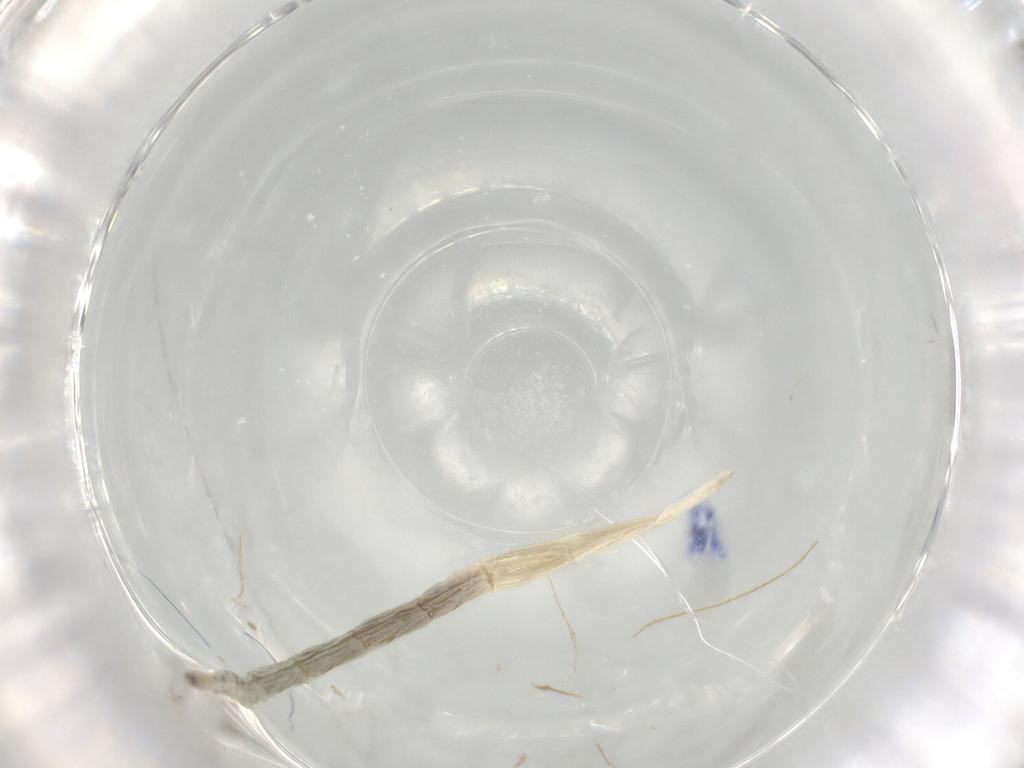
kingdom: Animalia
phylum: Arthropoda
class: Insecta
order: Diptera
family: Ceratopogonidae
